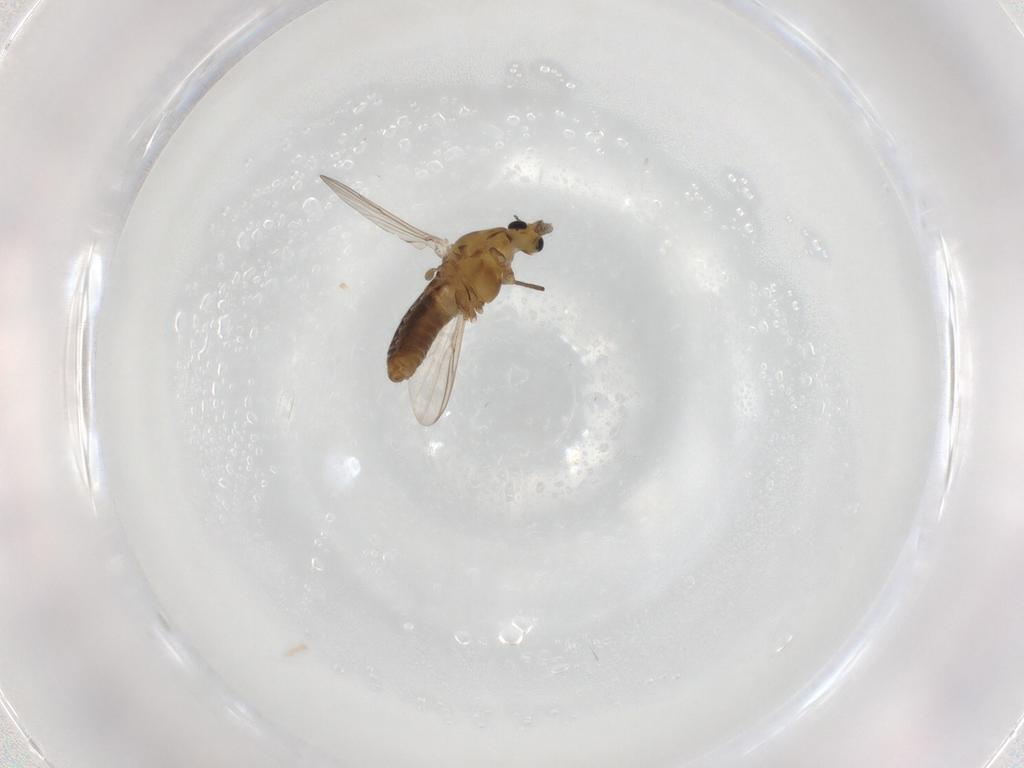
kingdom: Animalia
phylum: Arthropoda
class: Insecta
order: Diptera
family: Chironomidae
